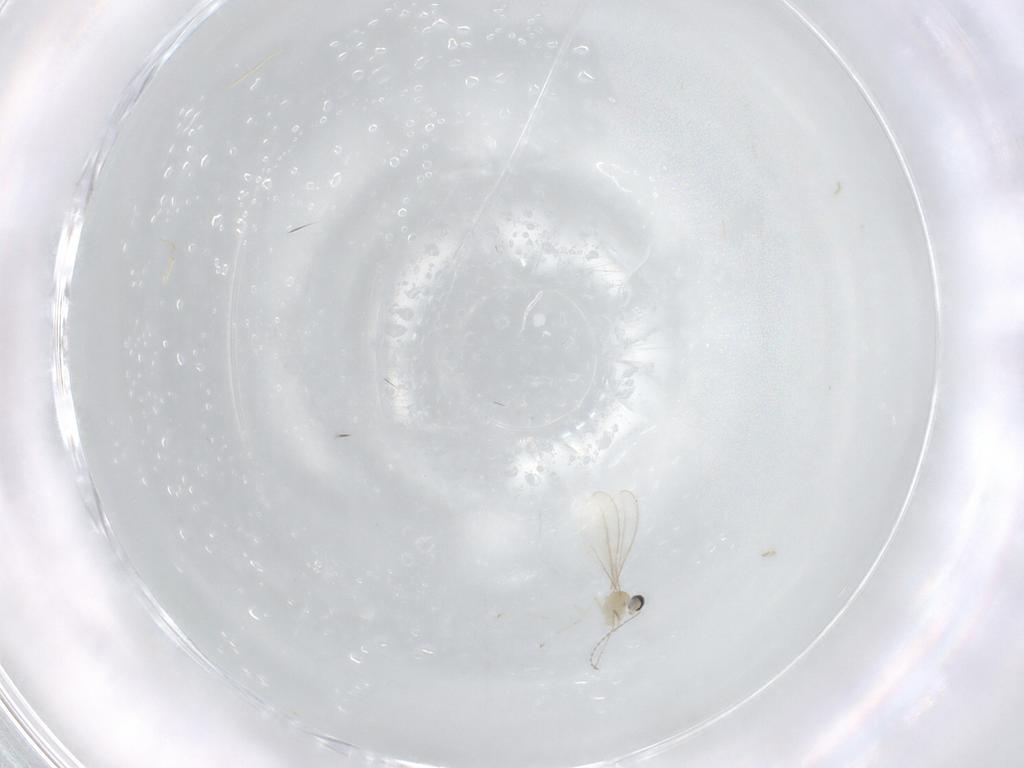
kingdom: Animalia
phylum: Arthropoda
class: Insecta
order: Diptera
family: Cecidomyiidae
